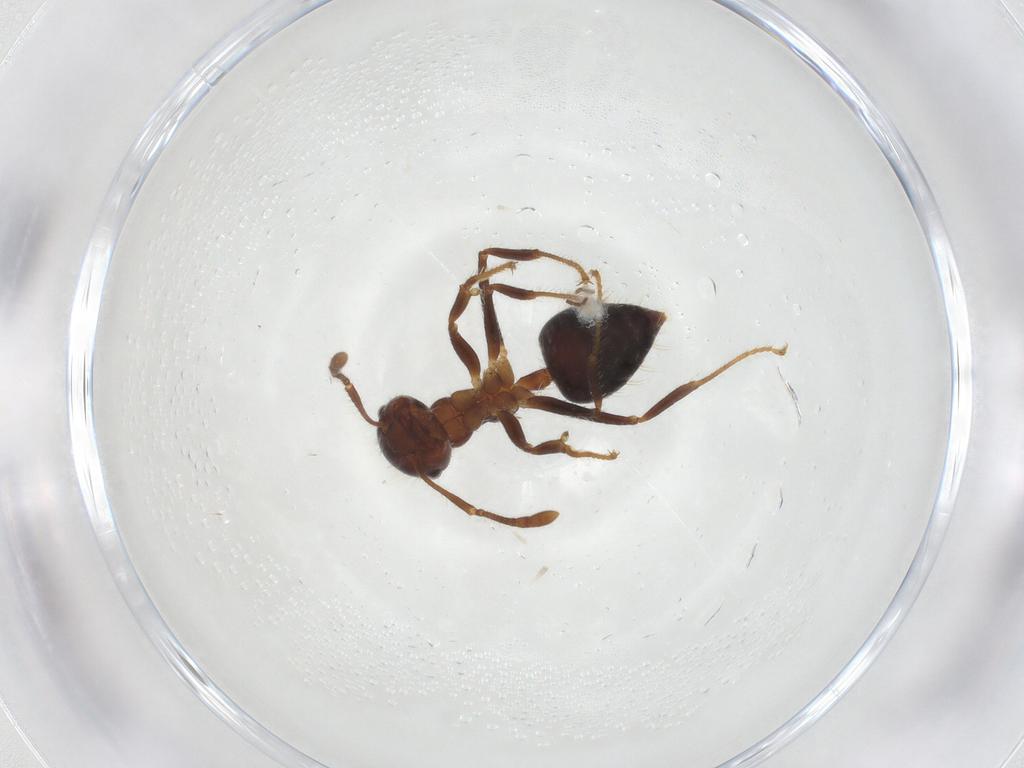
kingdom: Animalia
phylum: Arthropoda
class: Insecta
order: Hymenoptera
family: Formicidae
